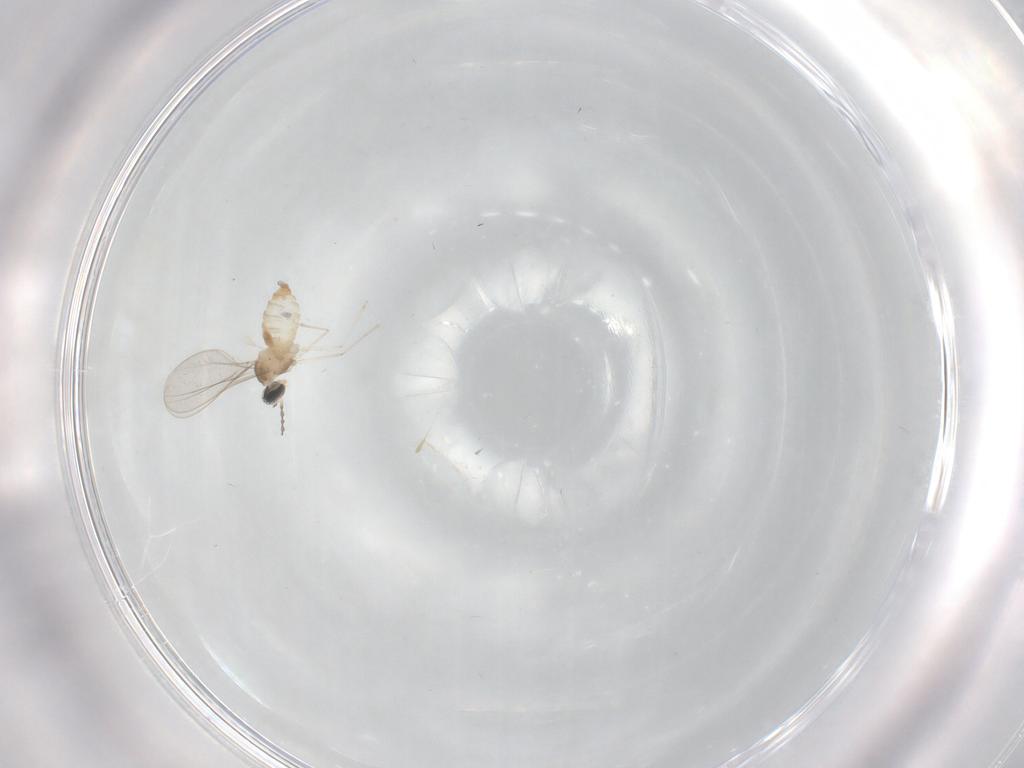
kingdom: Animalia
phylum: Arthropoda
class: Insecta
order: Diptera
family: Cecidomyiidae
